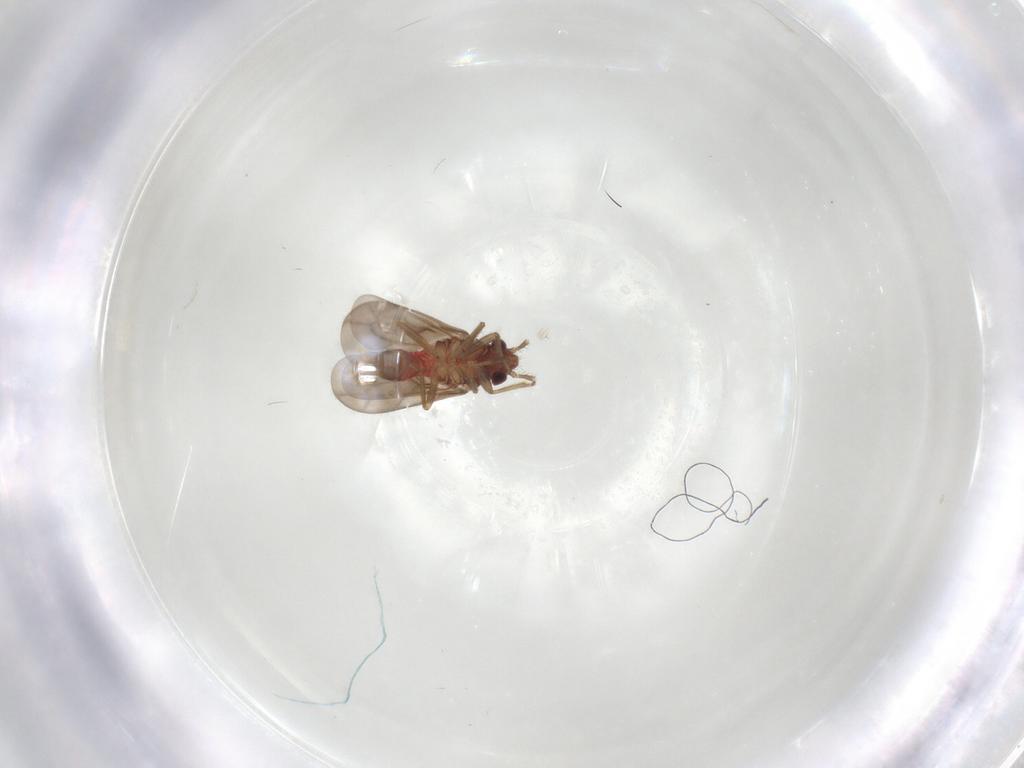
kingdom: Animalia
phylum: Arthropoda
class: Insecta
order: Hemiptera
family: Ceratocombidae
